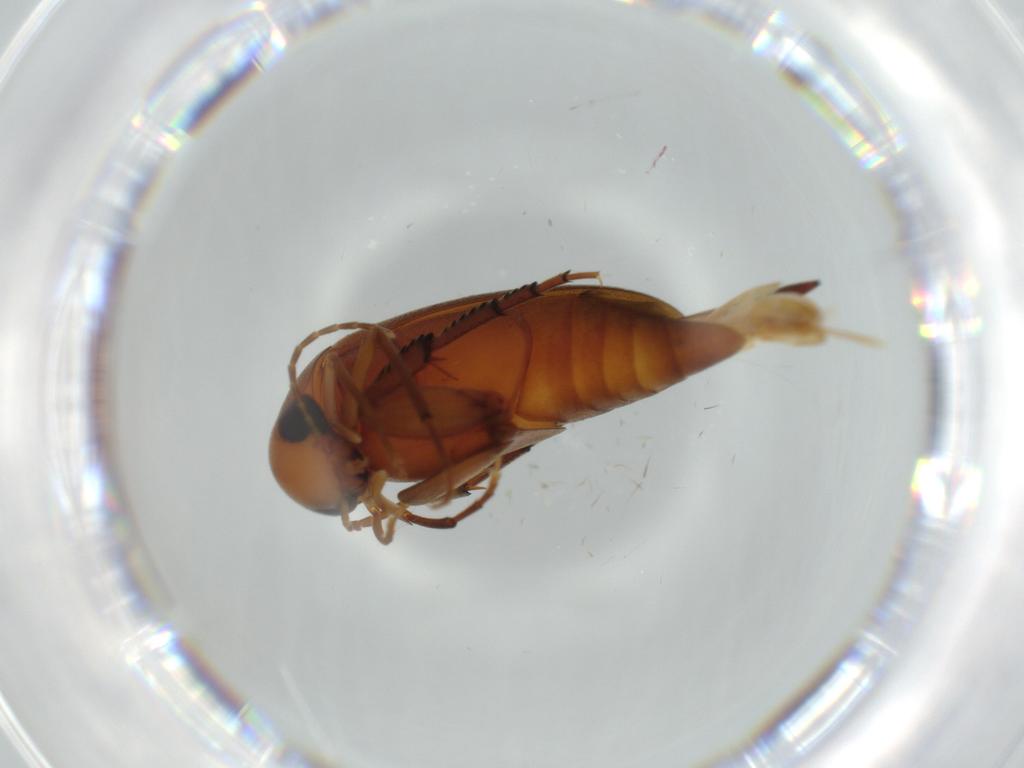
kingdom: Animalia
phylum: Arthropoda
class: Insecta
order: Coleoptera
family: Mordellidae
